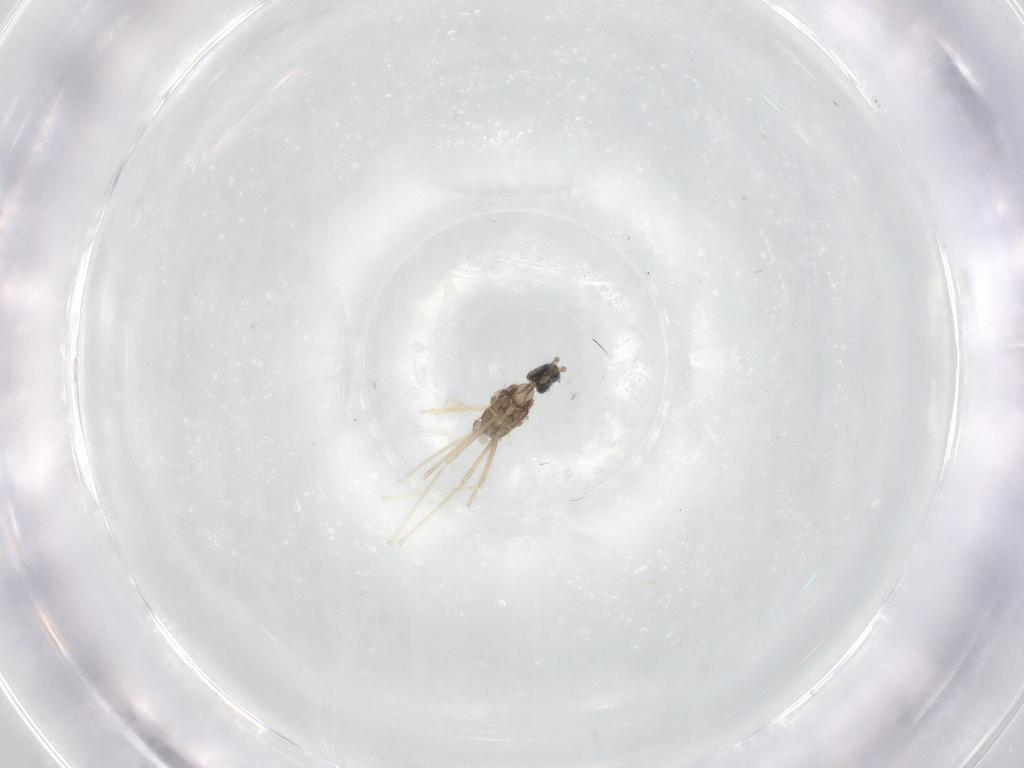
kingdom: Animalia
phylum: Arthropoda
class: Insecta
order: Diptera
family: Cecidomyiidae
